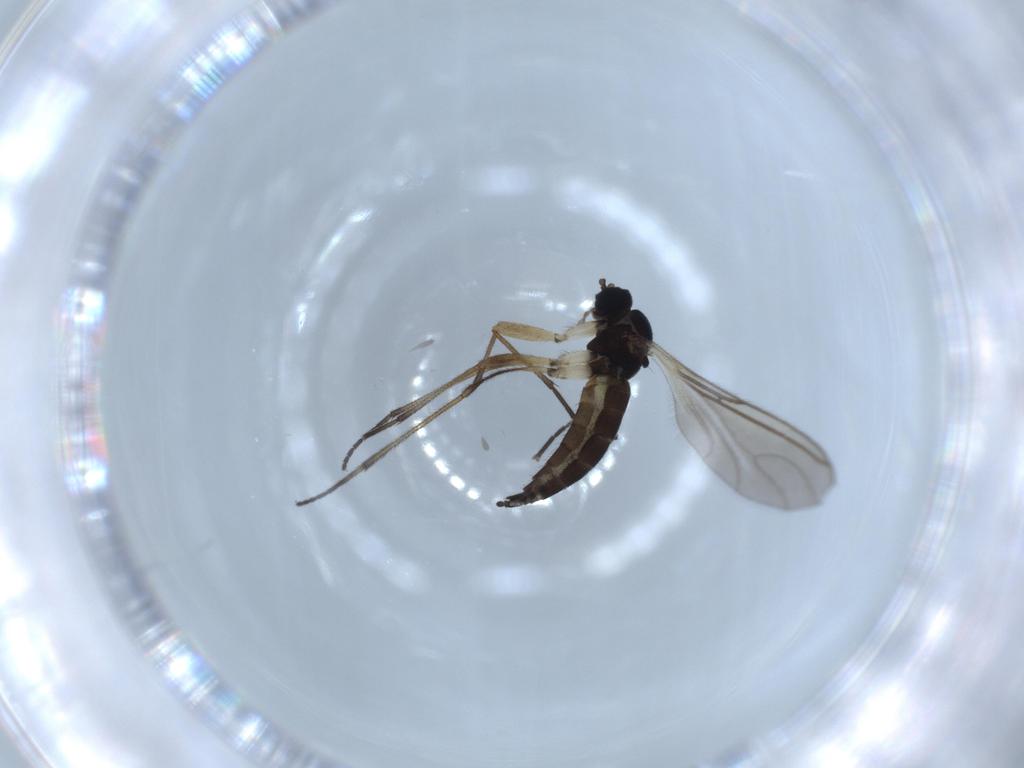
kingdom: Animalia
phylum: Arthropoda
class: Insecta
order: Diptera
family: Sciaridae
